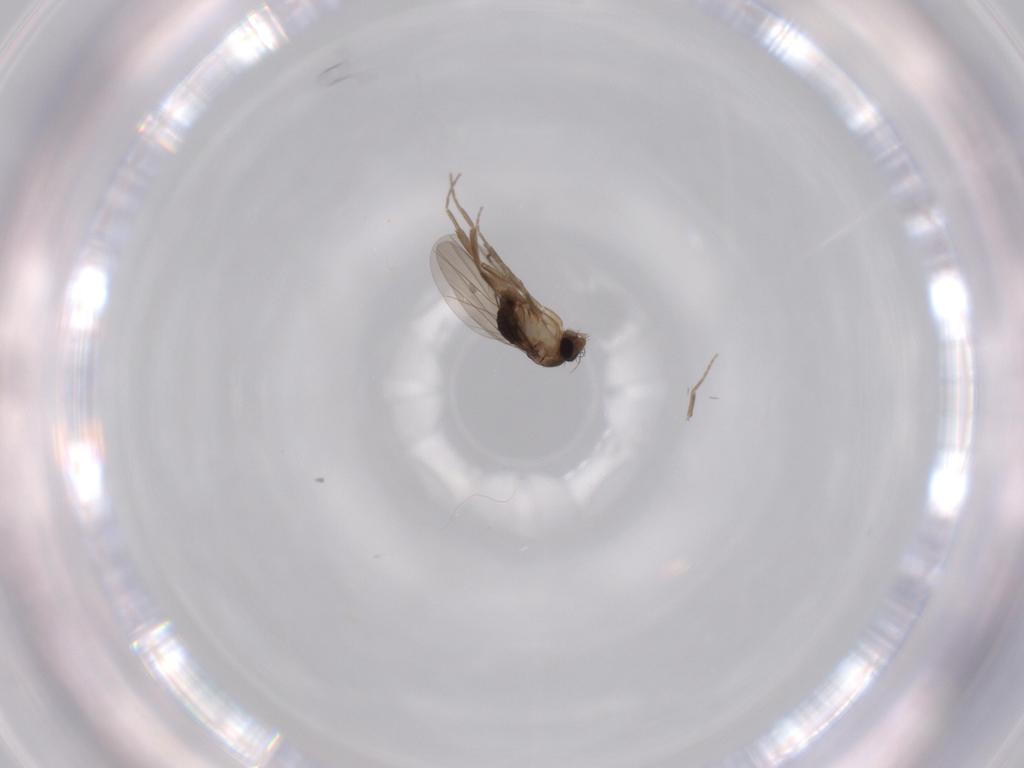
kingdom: Animalia
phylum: Arthropoda
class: Insecta
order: Diptera
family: Phoridae
